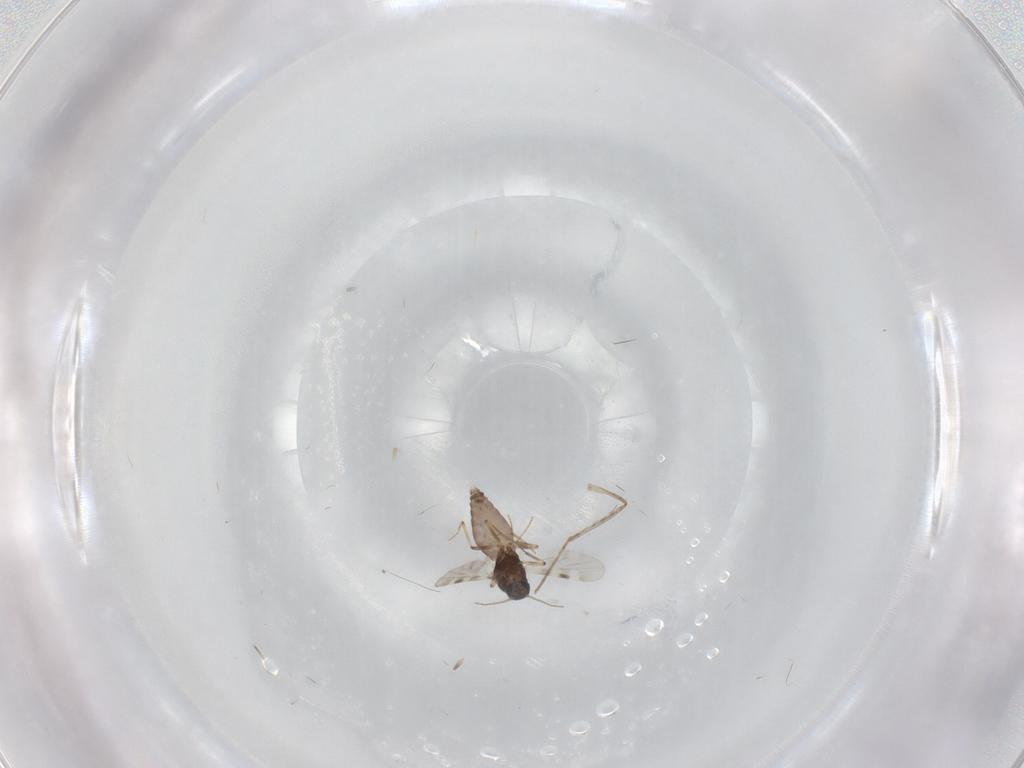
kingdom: Animalia
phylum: Arthropoda
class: Insecta
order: Diptera
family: Cecidomyiidae
